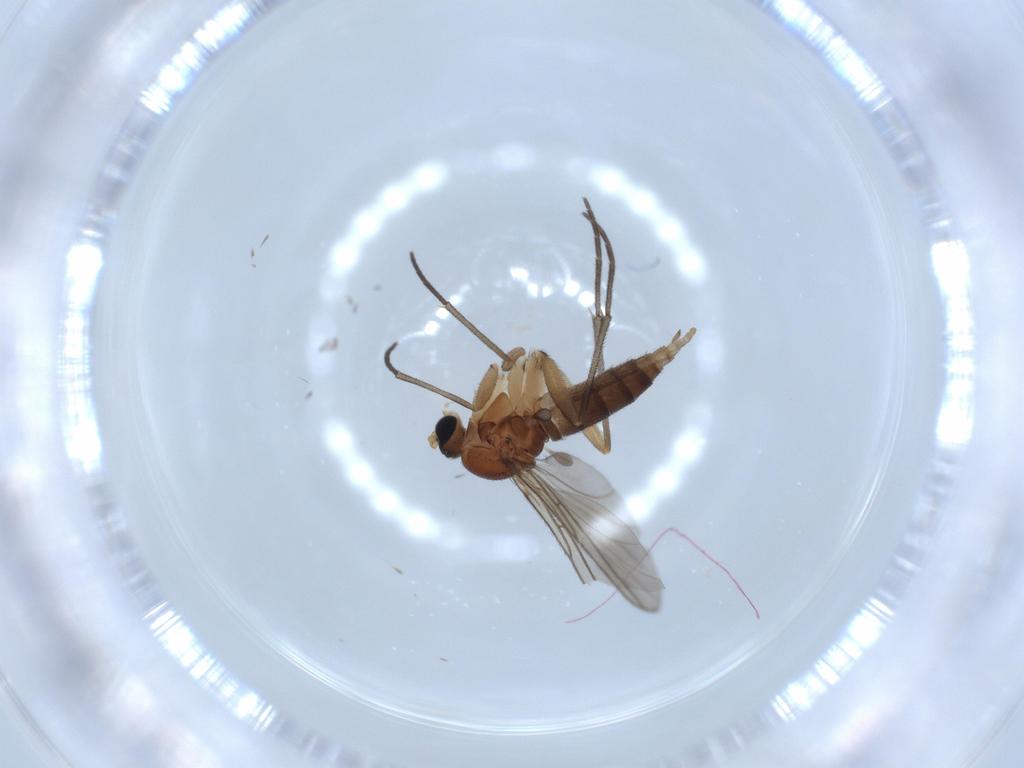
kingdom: Animalia
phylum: Arthropoda
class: Insecta
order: Diptera
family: Sciaridae
